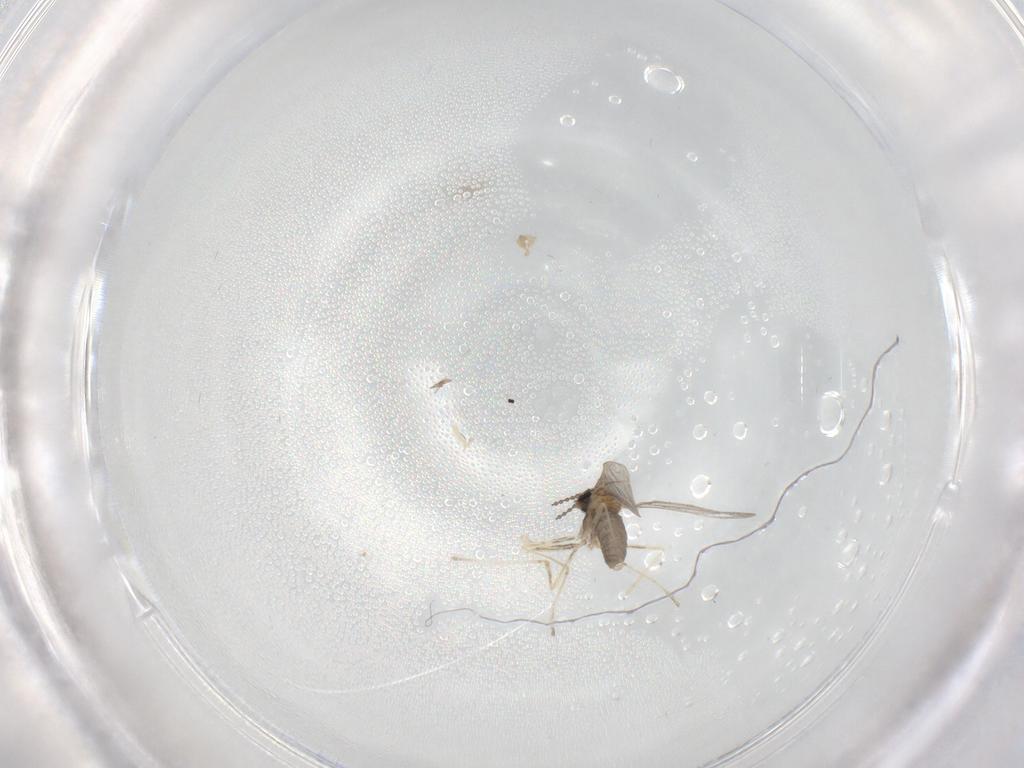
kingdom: Animalia
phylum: Arthropoda
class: Insecta
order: Diptera
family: Cecidomyiidae
